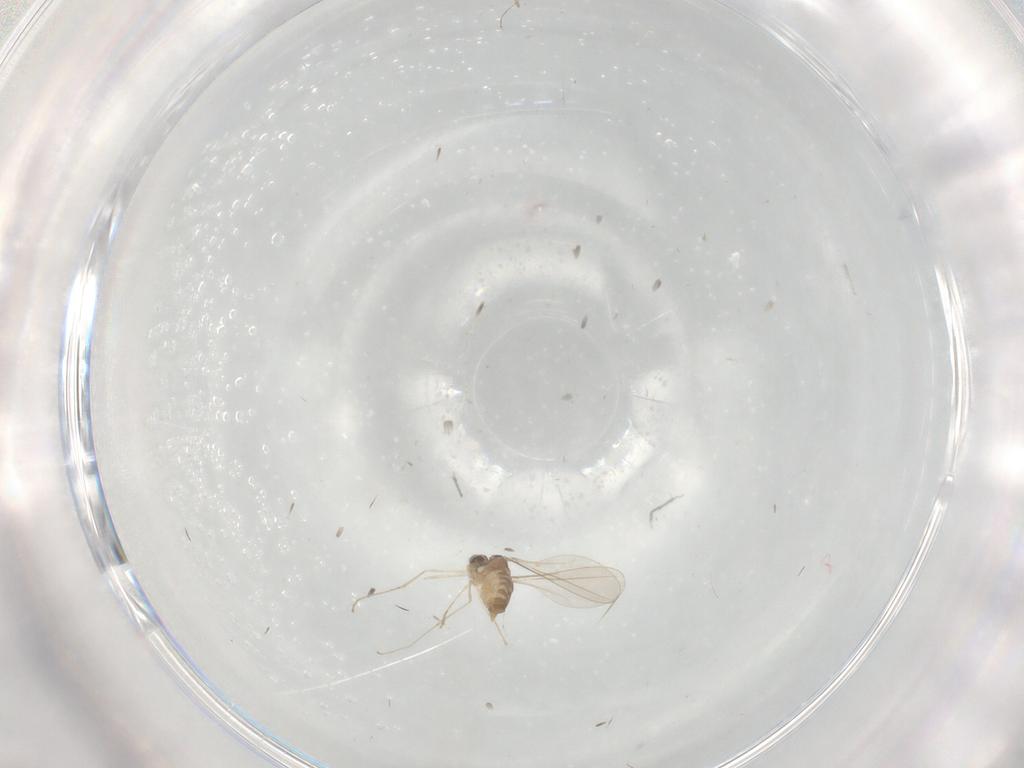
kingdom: Animalia
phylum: Arthropoda
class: Insecta
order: Diptera
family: Cecidomyiidae
